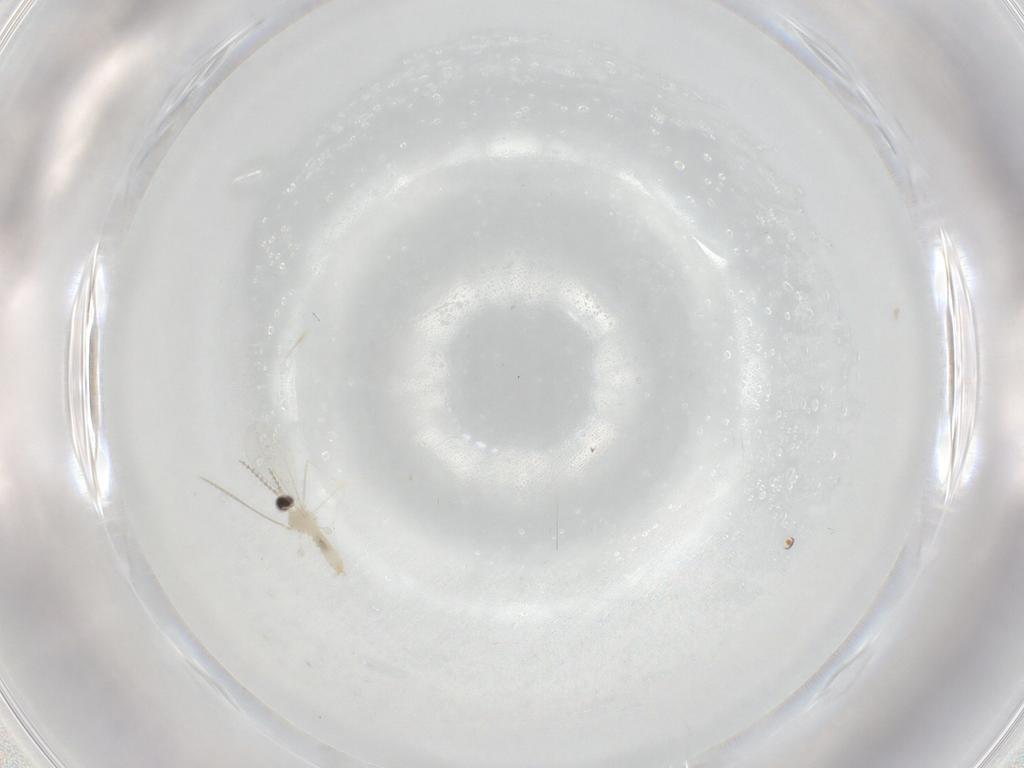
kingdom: Animalia
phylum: Arthropoda
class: Insecta
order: Diptera
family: Cecidomyiidae
